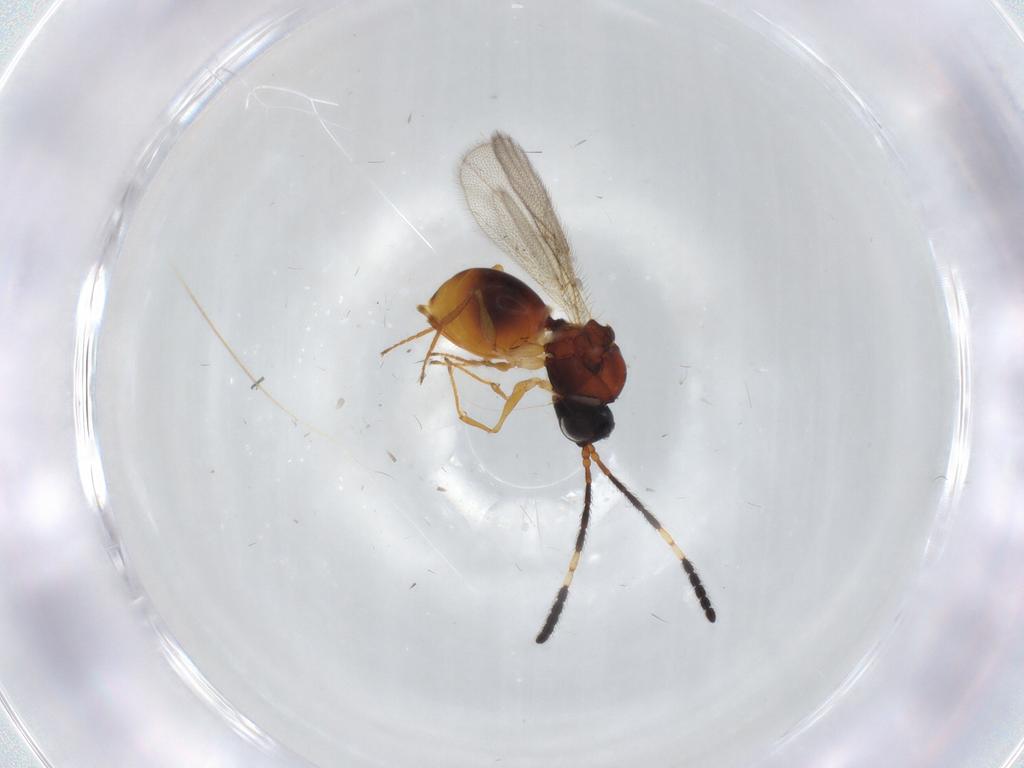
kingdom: Animalia
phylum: Arthropoda
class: Insecta
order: Hymenoptera
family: Figitidae
